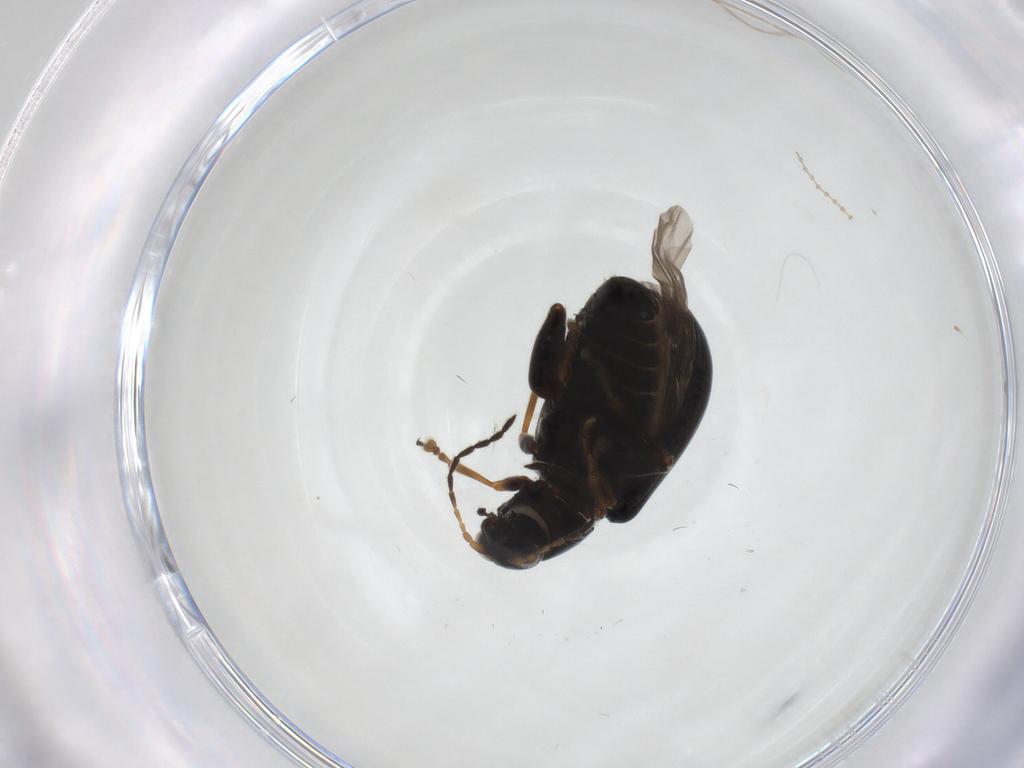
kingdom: Animalia
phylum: Arthropoda
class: Insecta
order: Coleoptera
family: Chrysomelidae
